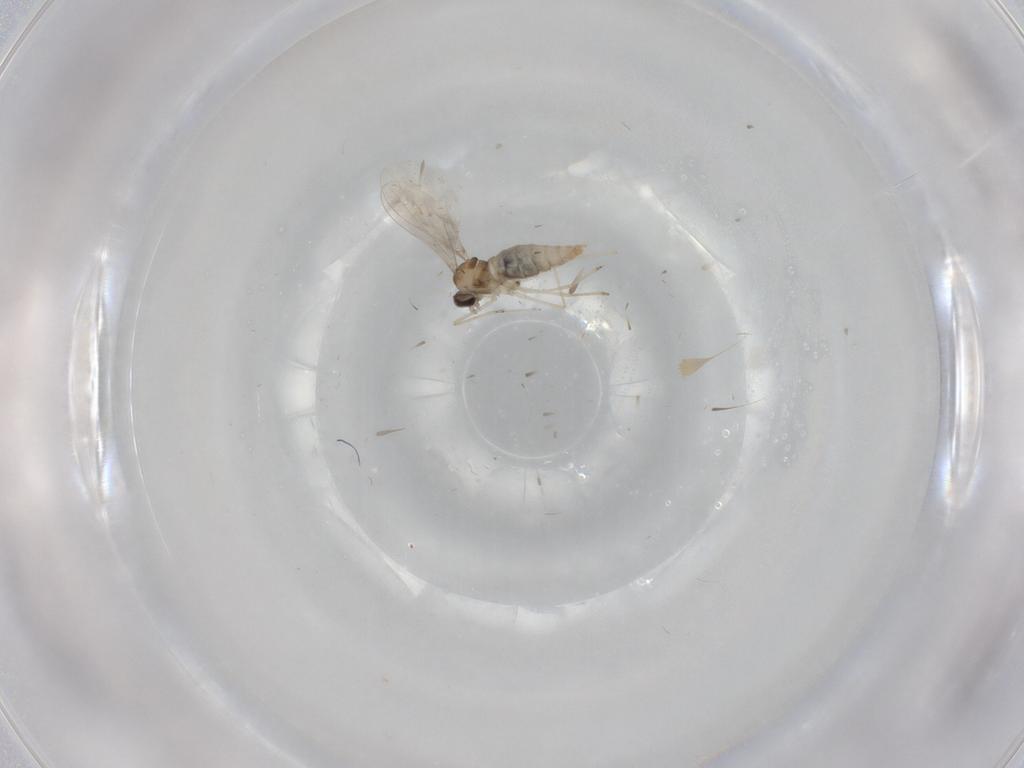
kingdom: Animalia
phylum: Arthropoda
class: Insecta
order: Diptera
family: Cecidomyiidae
